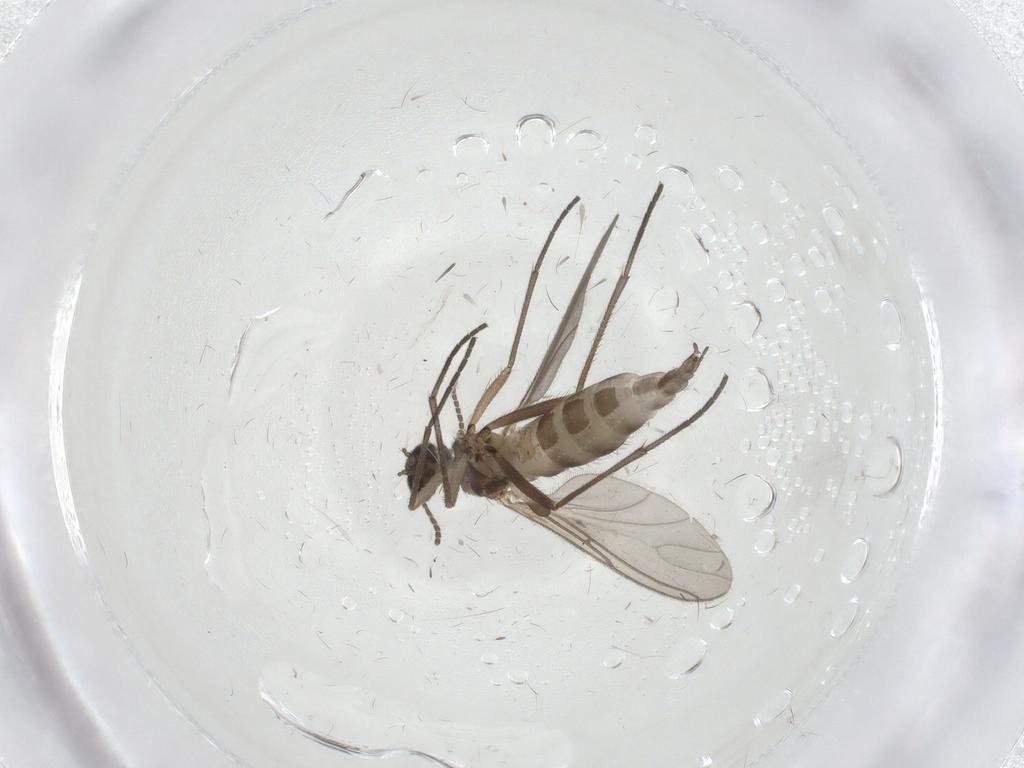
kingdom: Animalia
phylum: Arthropoda
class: Insecta
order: Diptera
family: Sciaridae
